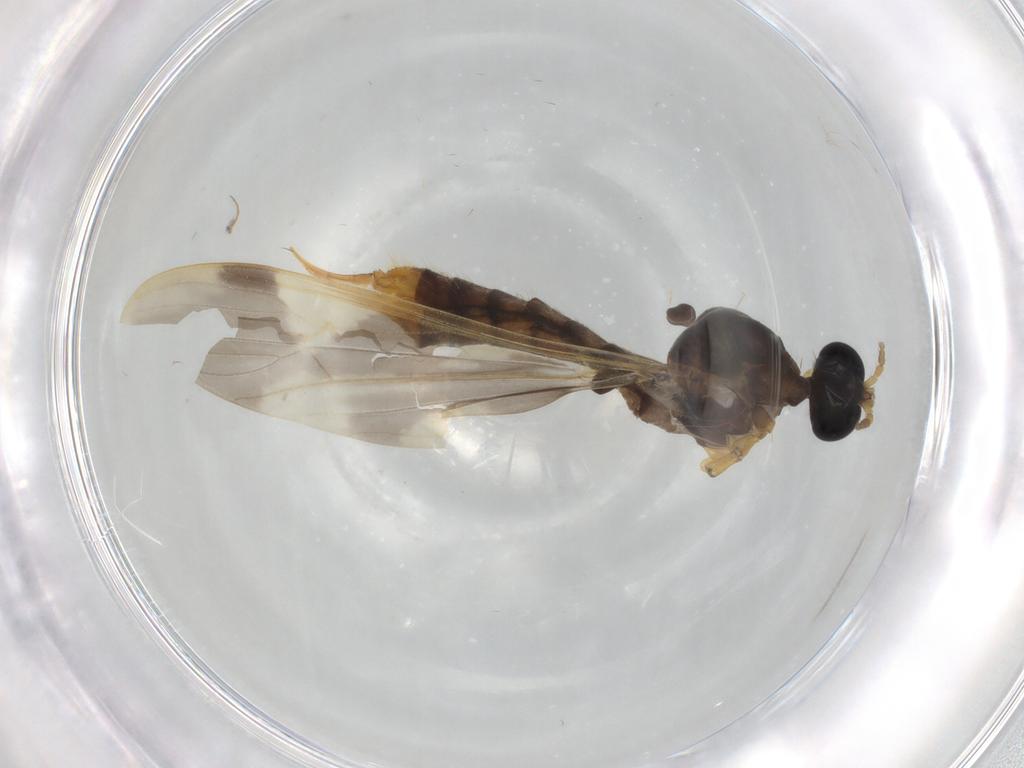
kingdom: Animalia
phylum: Arthropoda
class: Insecta
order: Diptera
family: Limoniidae
